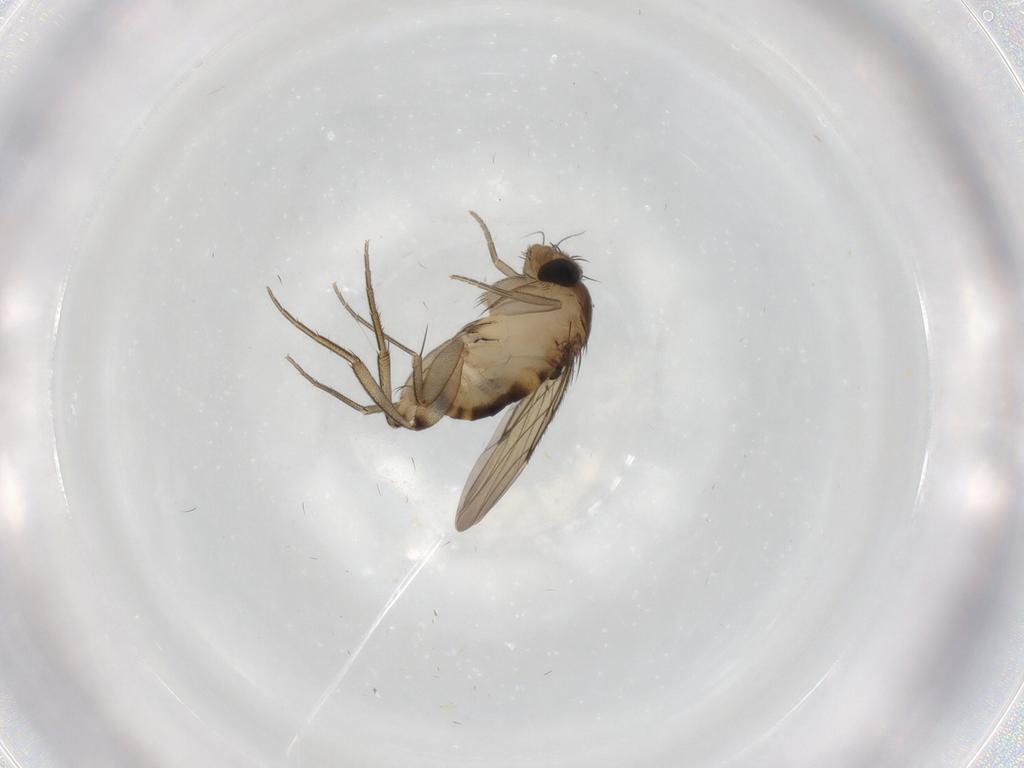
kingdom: Animalia
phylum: Arthropoda
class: Insecta
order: Diptera
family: Phoridae
